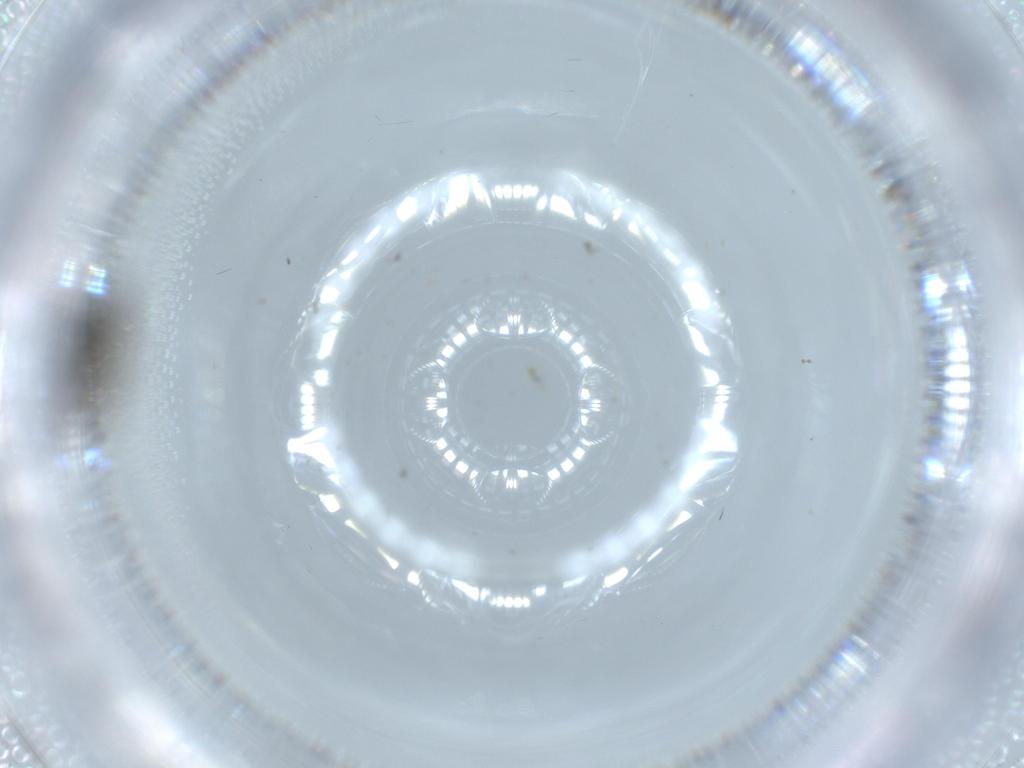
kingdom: Animalia
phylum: Arthropoda
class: Insecta
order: Diptera
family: Phoridae
